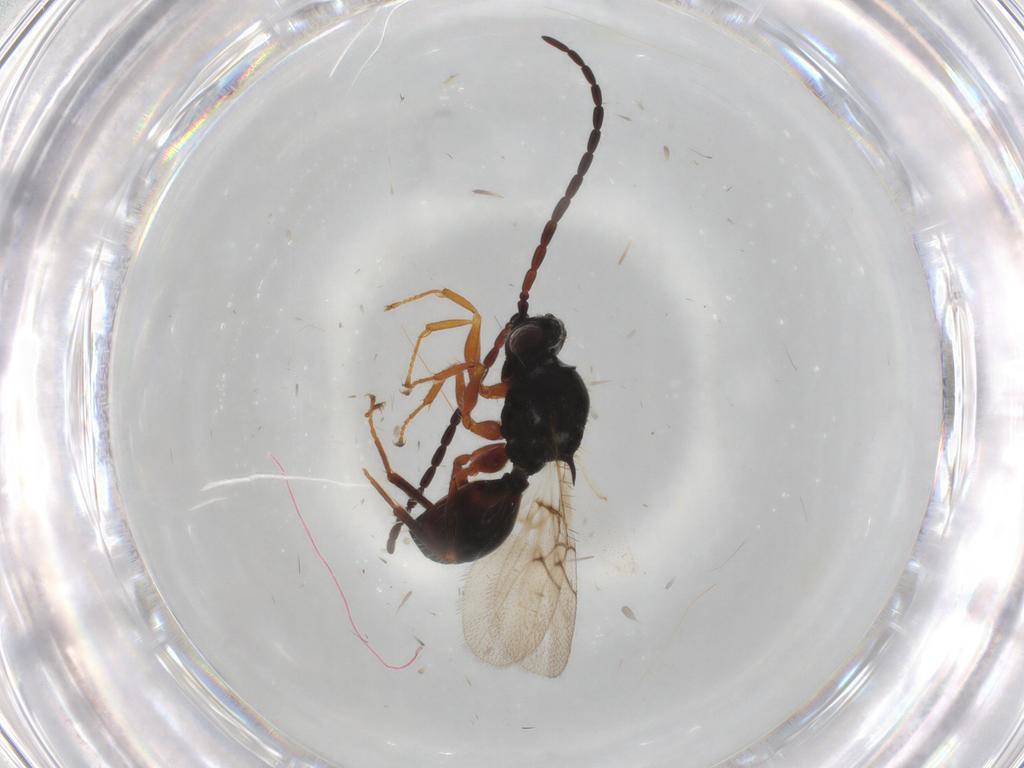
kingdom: Animalia
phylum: Arthropoda
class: Insecta
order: Hymenoptera
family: Figitidae
